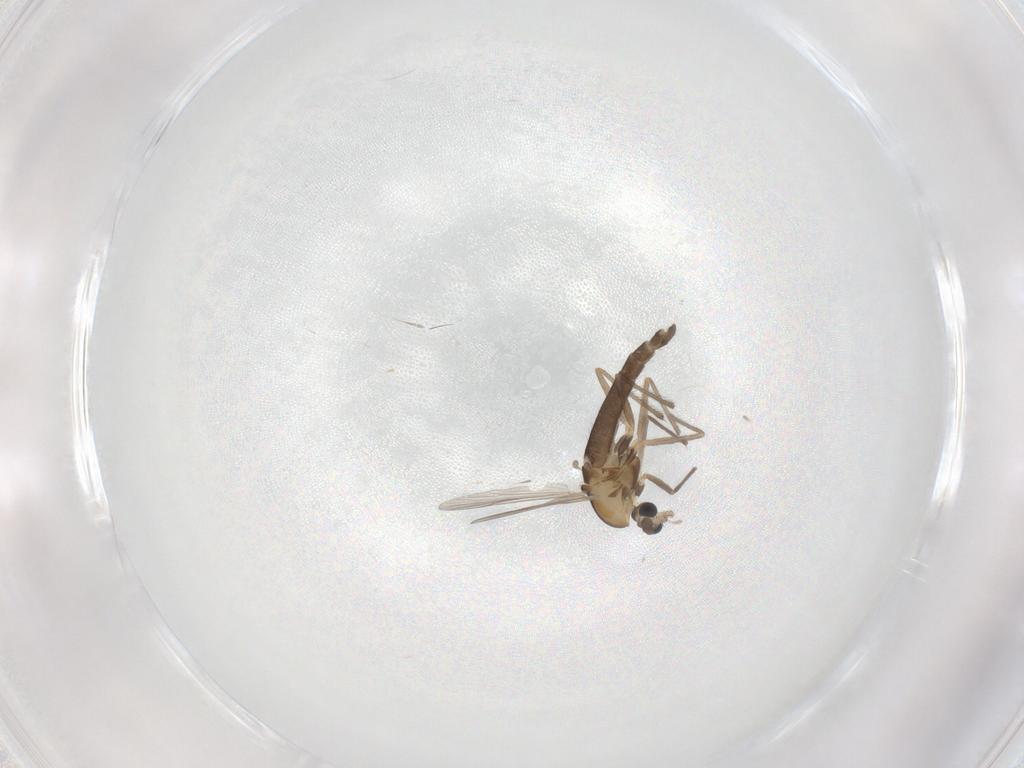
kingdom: Animalia
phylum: Arthropoda
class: Insecta
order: Diptera
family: Chironomidae
